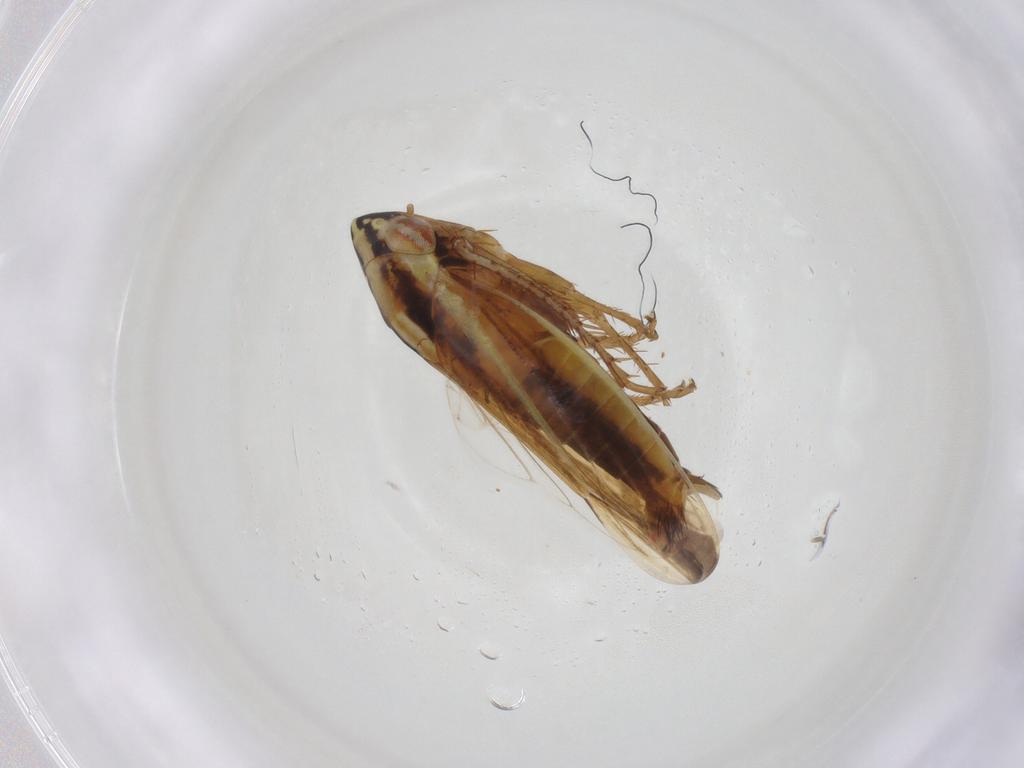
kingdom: Animalia
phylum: Arthropoda
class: Insecta
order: Hemiptera
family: Cicadellidae
